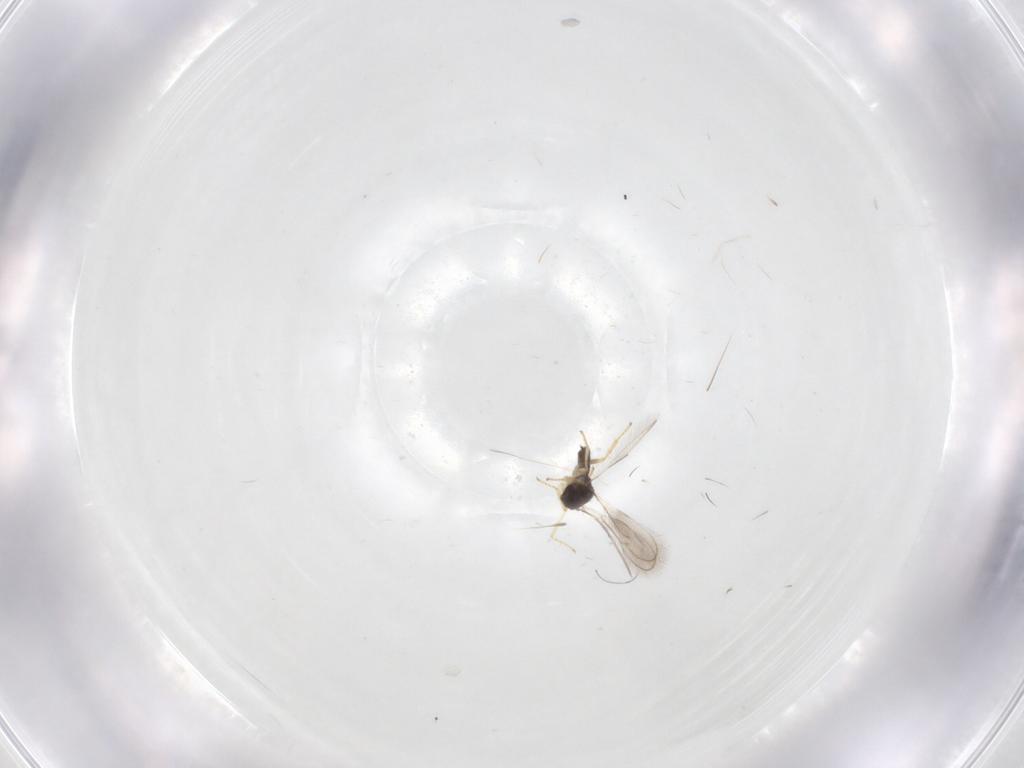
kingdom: Animalia
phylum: Arthropoda
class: Insecta
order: Hymenoptera
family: Eulophidae
